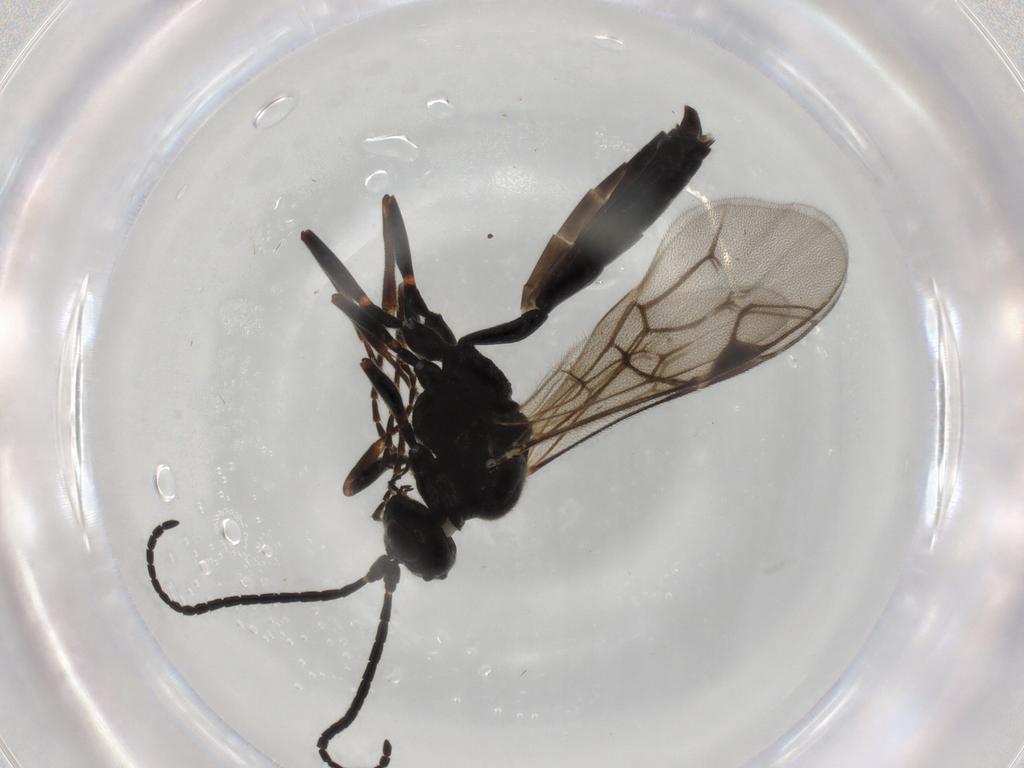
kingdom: Animalia
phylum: Arthropoda
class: Insecta
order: Hymenoptera
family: Ichneumonidae
